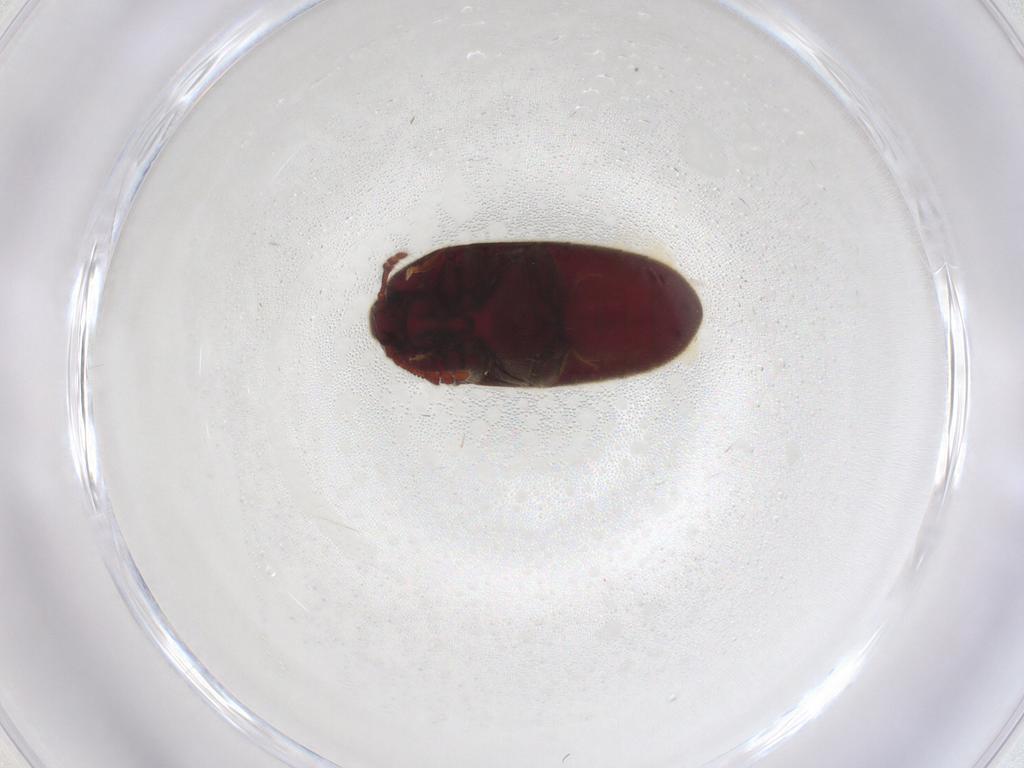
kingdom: Animalia
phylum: Arthropoda
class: Insecta
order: Coleoptera
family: Throscidae
